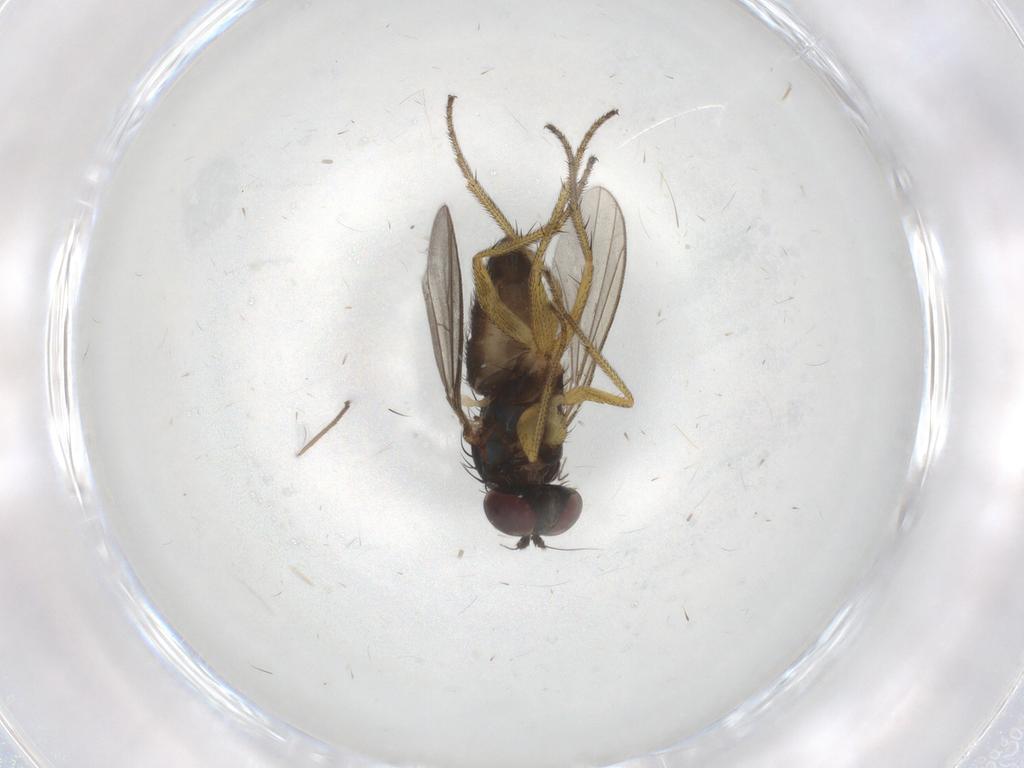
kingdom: Animalia
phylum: Arthropoda
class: Insecta
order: Diptera
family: Dolichopodidae
